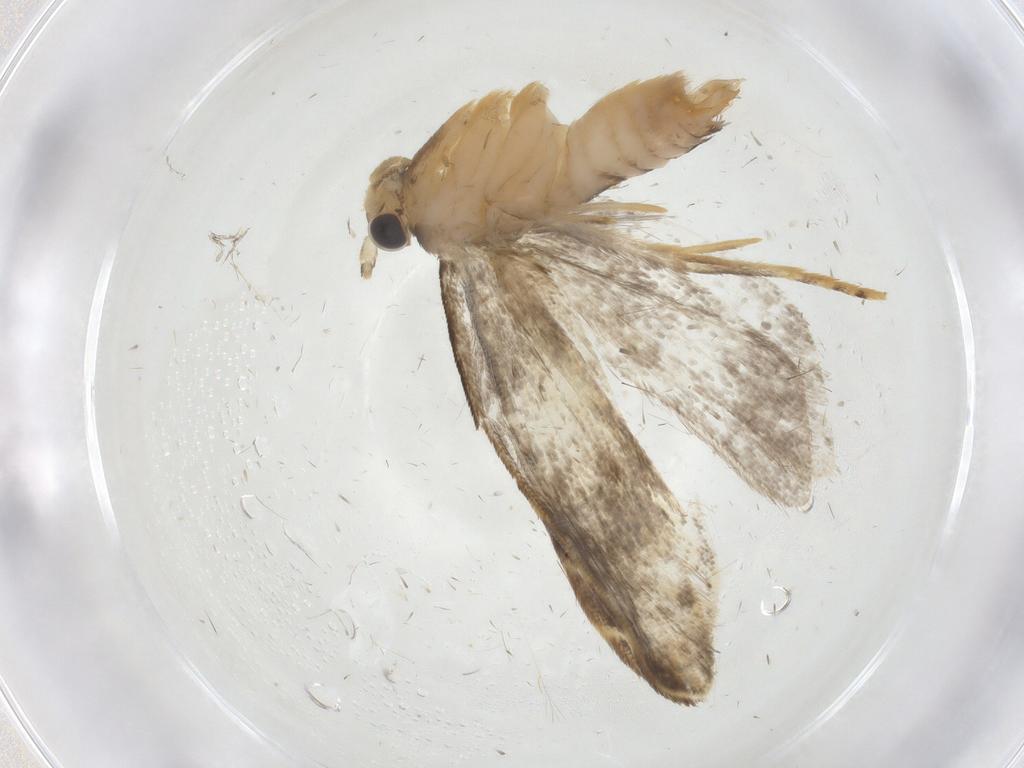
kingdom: Animalia
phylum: Arthropoda
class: Insecta
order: Lepidoptera
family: Dryadaulidae
